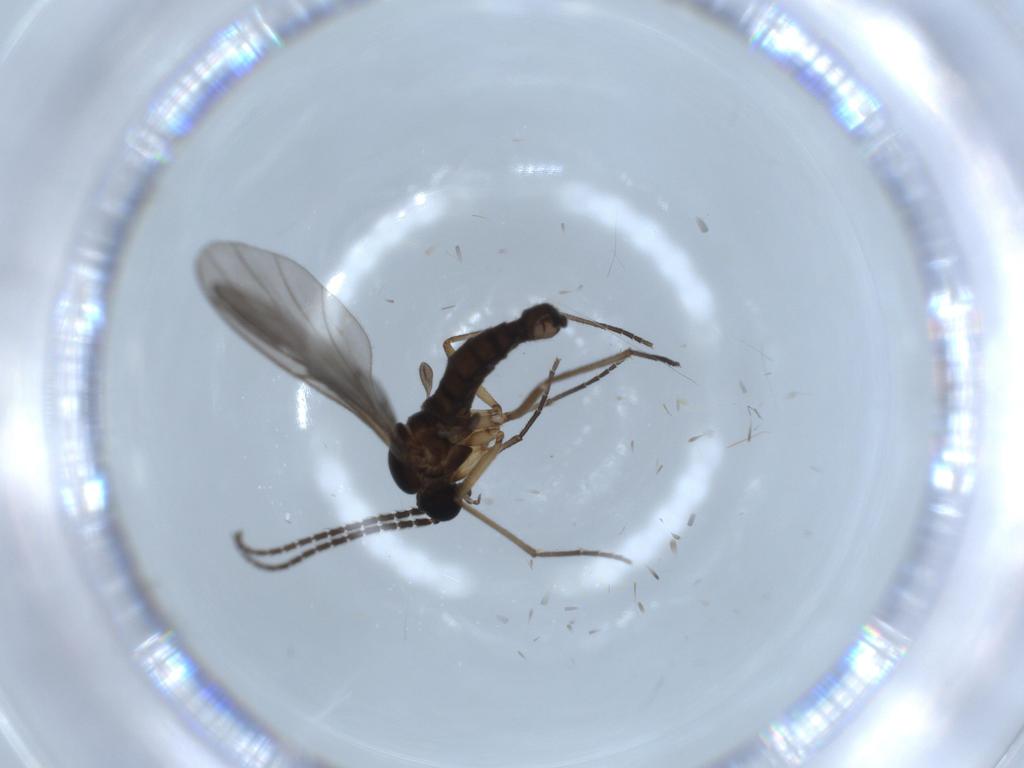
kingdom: Animalia
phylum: Arthropoda
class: Insecta
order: Diptera
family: Sciaridae
